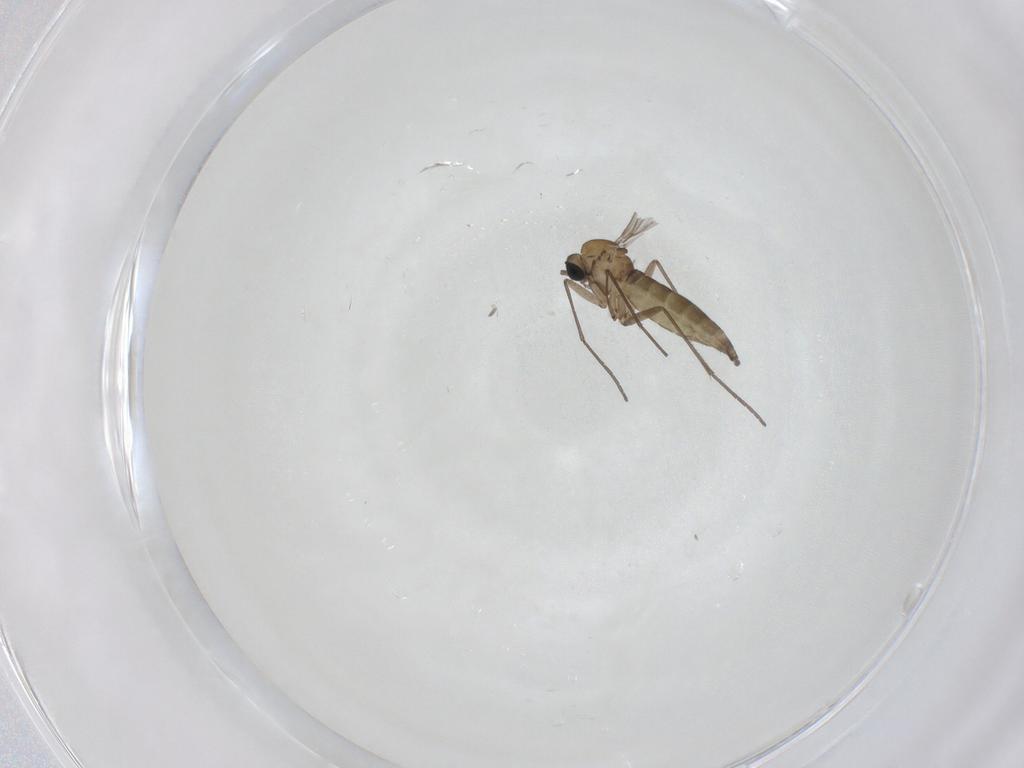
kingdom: Animalia
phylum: Arthropoda
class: Insecta
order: Diptera
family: Sciaridae
